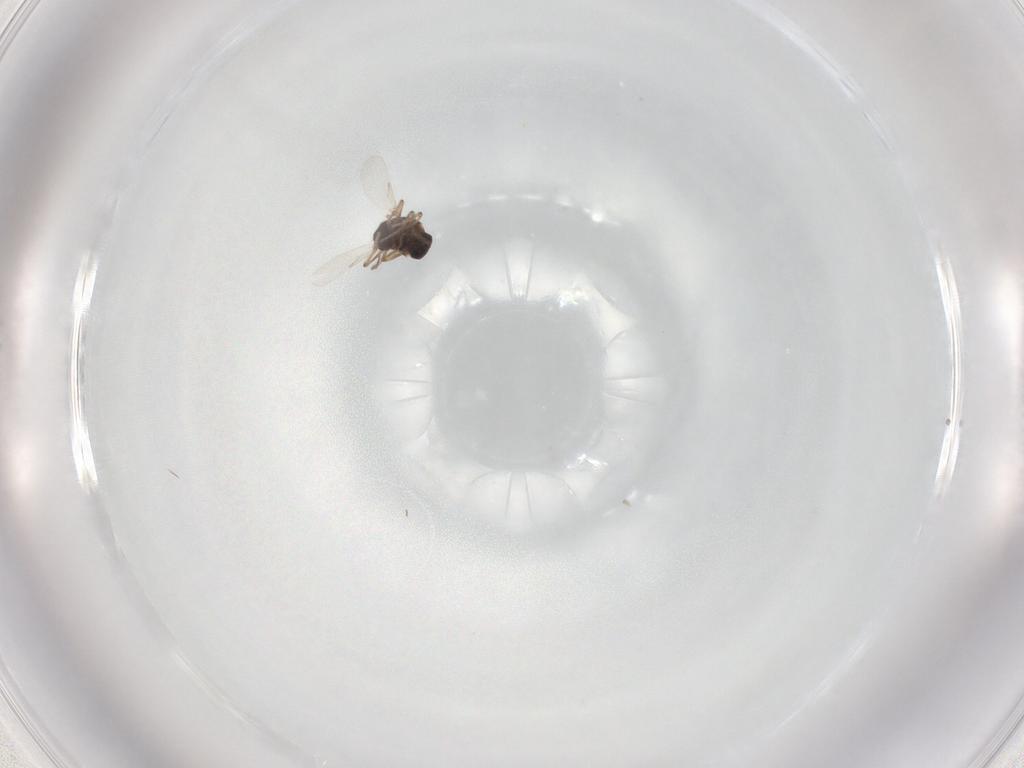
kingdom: Animalia
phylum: Arthropoda
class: Insecta
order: Diptera
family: Ceratopogonidae
